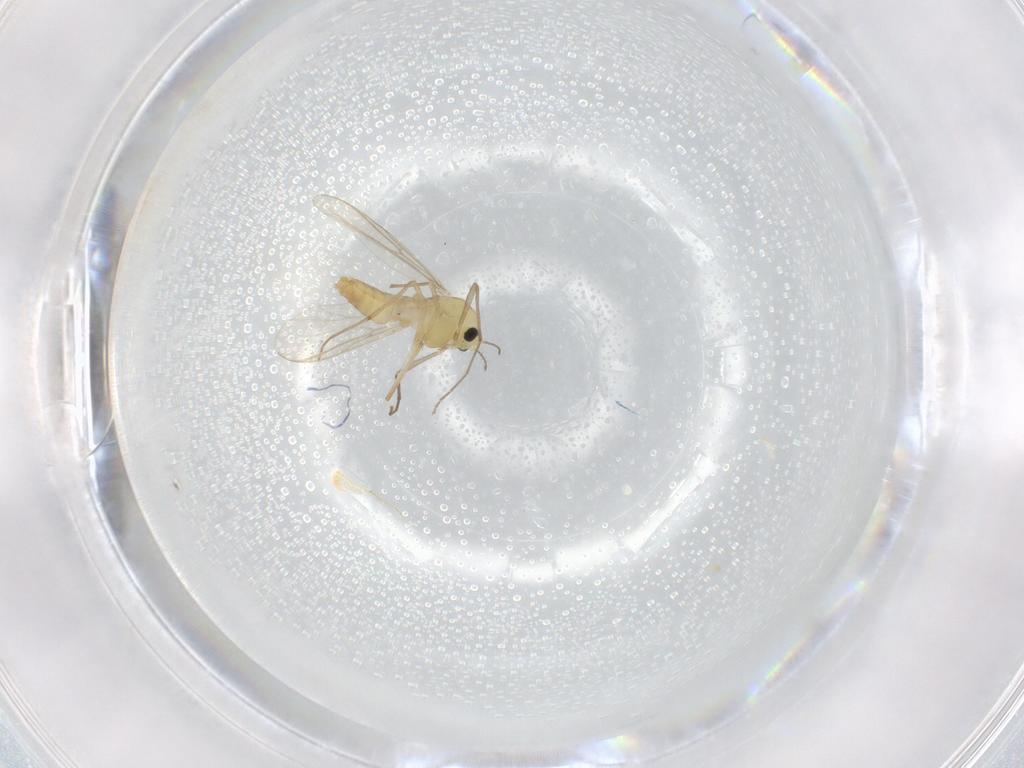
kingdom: Animalia
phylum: Arthropoda
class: Insecta
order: Diptera
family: Chironomidae
